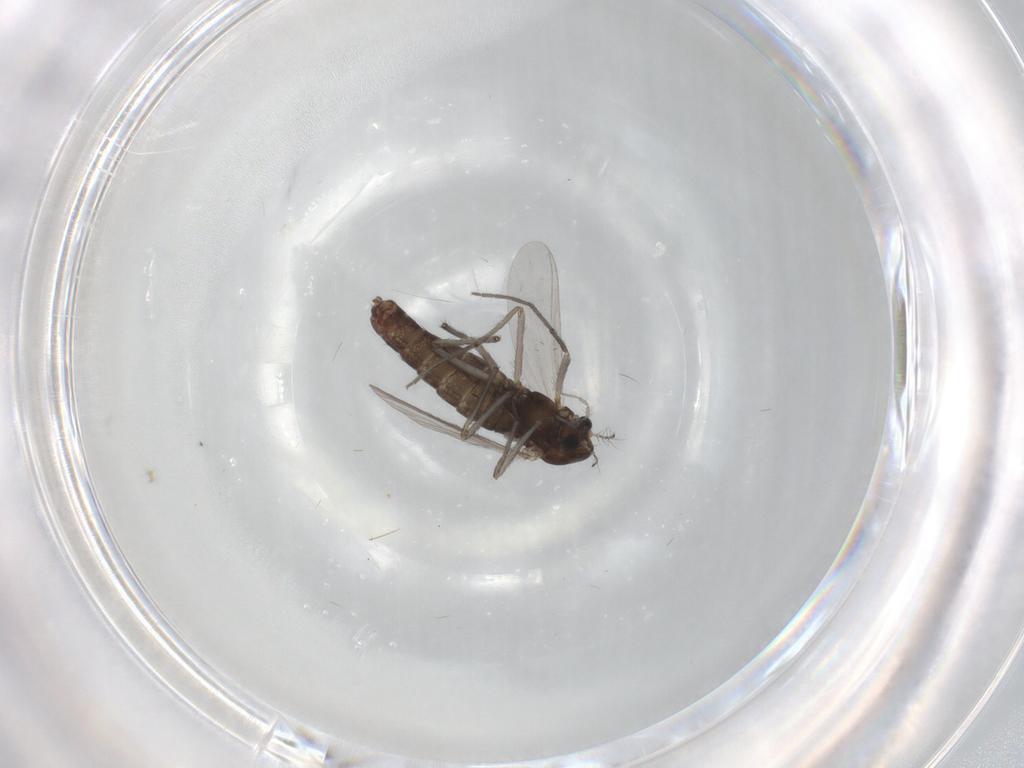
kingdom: Animalia
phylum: Arthropoda
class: Insecta
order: Diptera
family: Chironomidae
